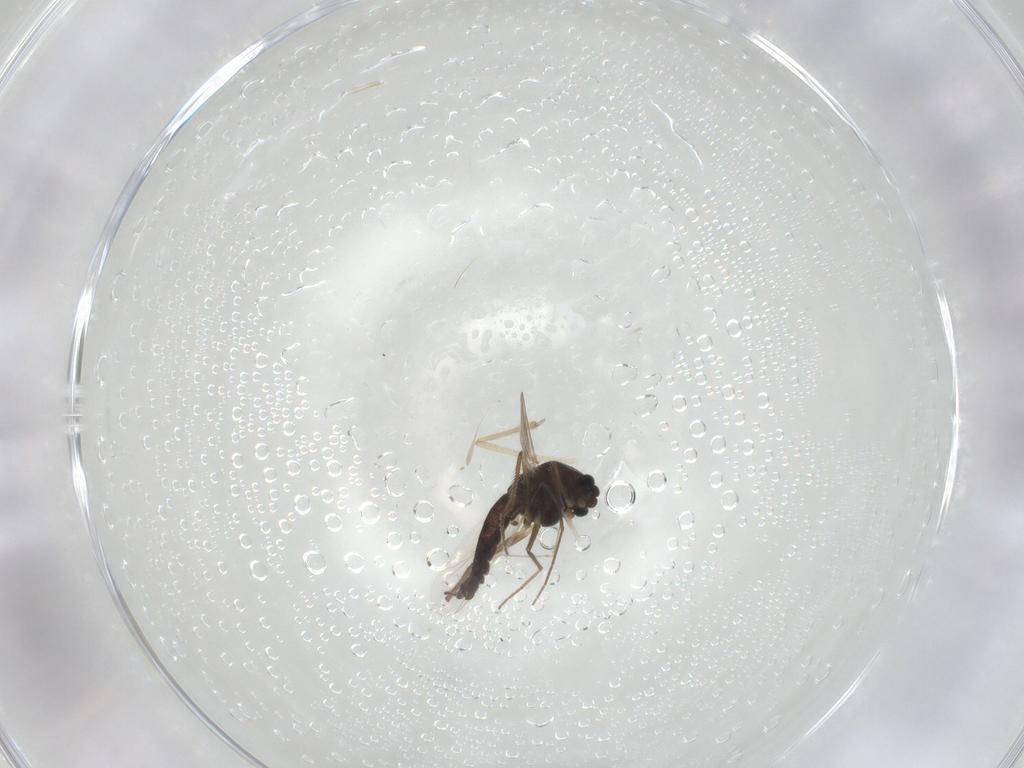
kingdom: Animalia
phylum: Arthropoda
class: Insecta
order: Diptera
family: Chironomidae
